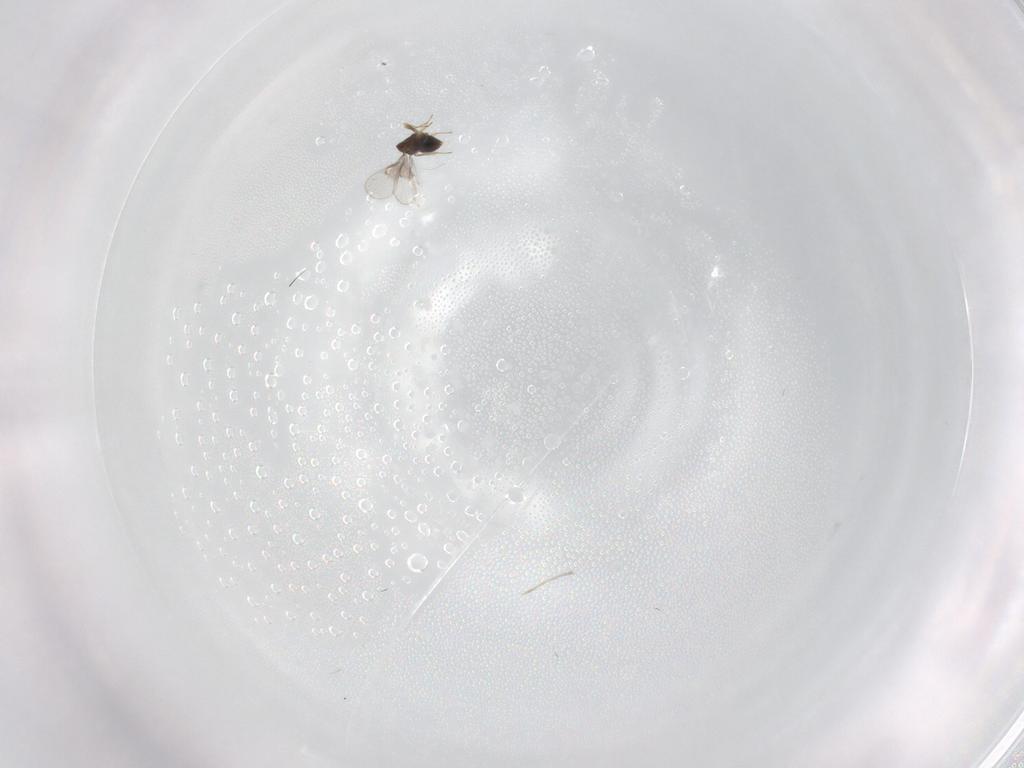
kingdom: Animalia
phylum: Arthropoda
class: Insecta
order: Hymenoptera
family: Trichogrammatidae
